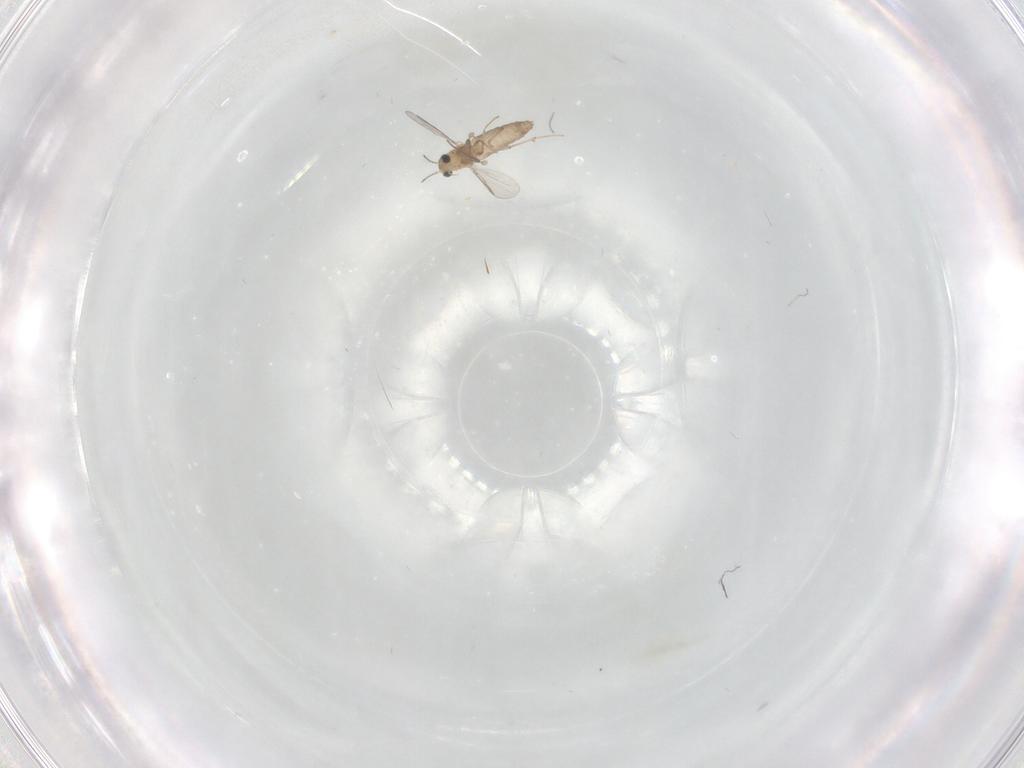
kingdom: Animalia
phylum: Arthropoda
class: Insecta
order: Diptera
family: Chironomidae
